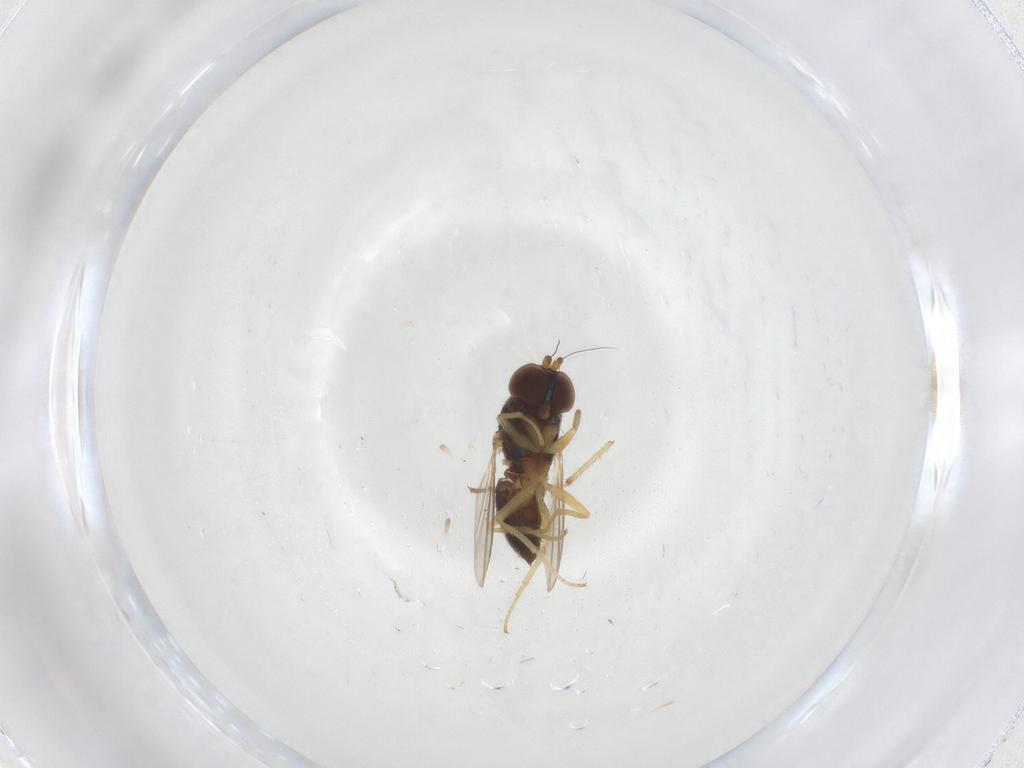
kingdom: Animalia
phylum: Arthropoda
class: Insecta
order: Diptera
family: Dolichopodidae
